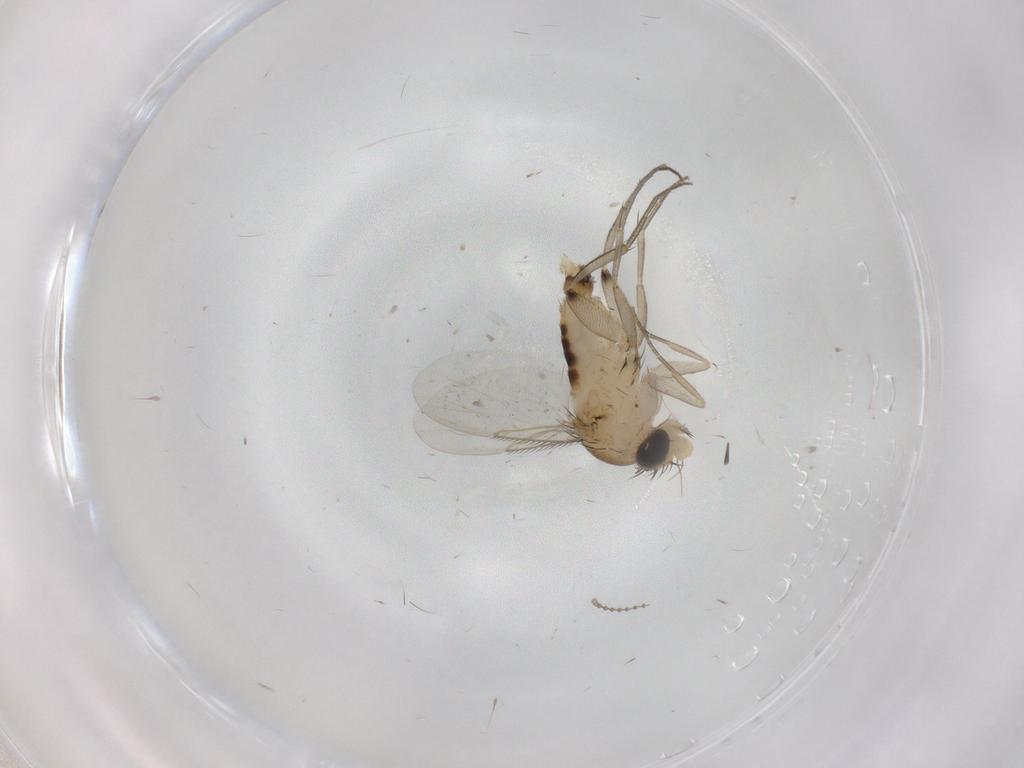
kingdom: Animalia
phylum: Arthropoda
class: Insecta
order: Diptera
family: Phoridae
